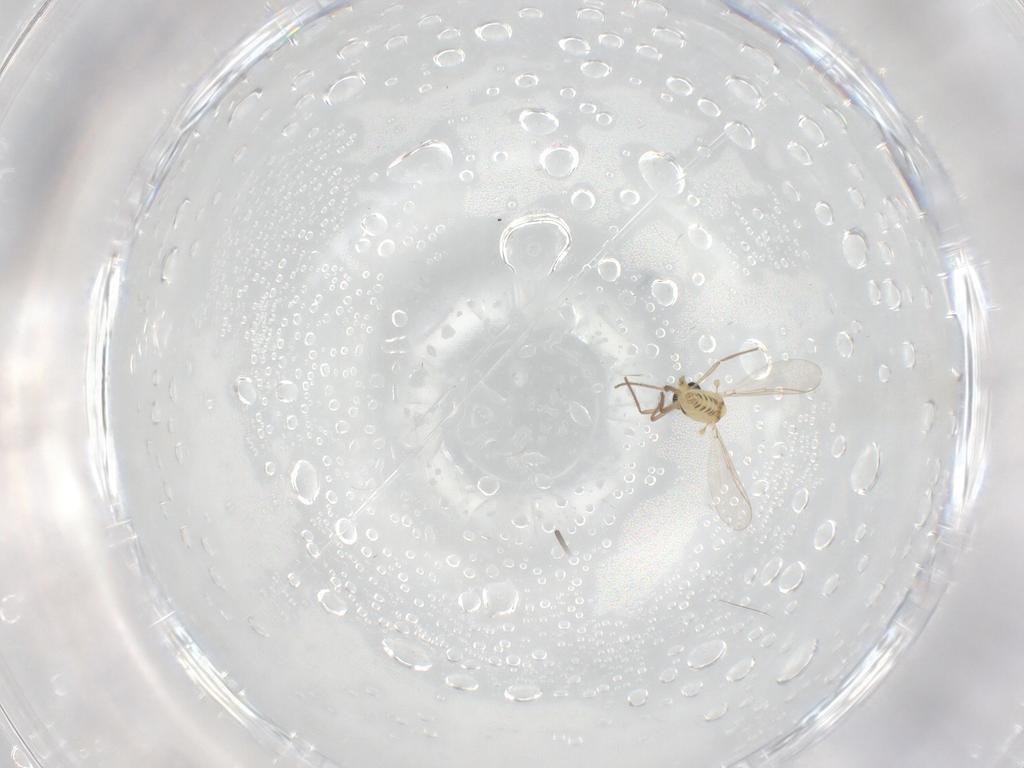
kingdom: Animalia
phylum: Arthropoda
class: Insecta
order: Diptera
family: Chironomidae
